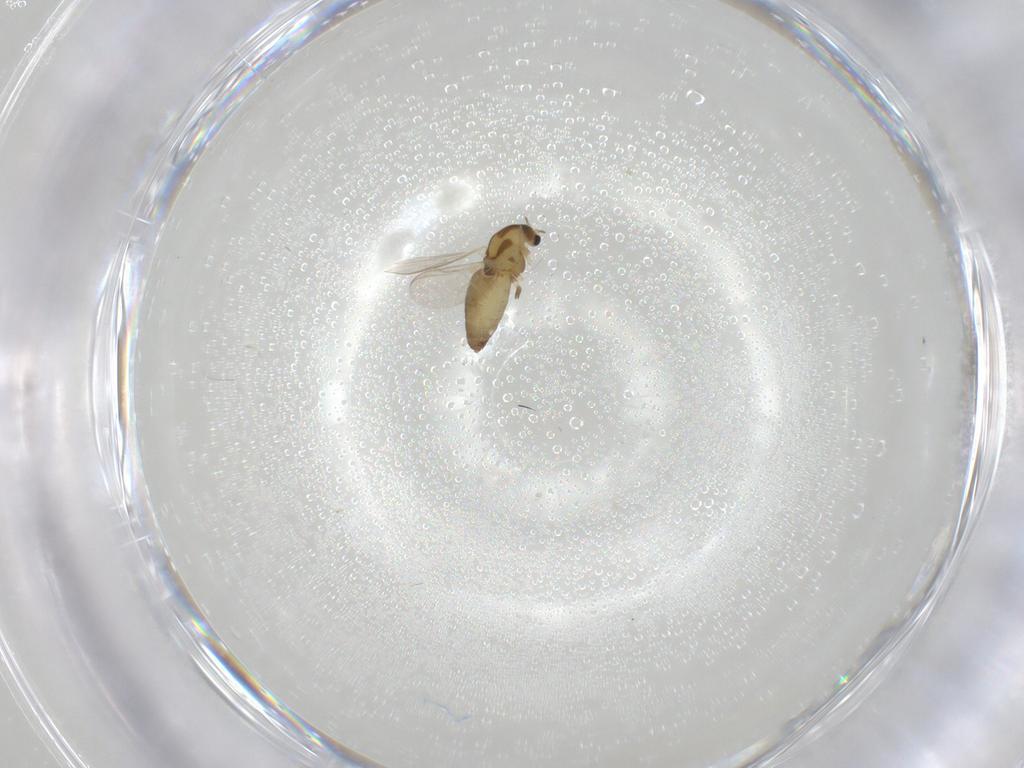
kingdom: Animalia
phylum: Arthropoda
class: Insecta
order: Diptera
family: Chironomidae
